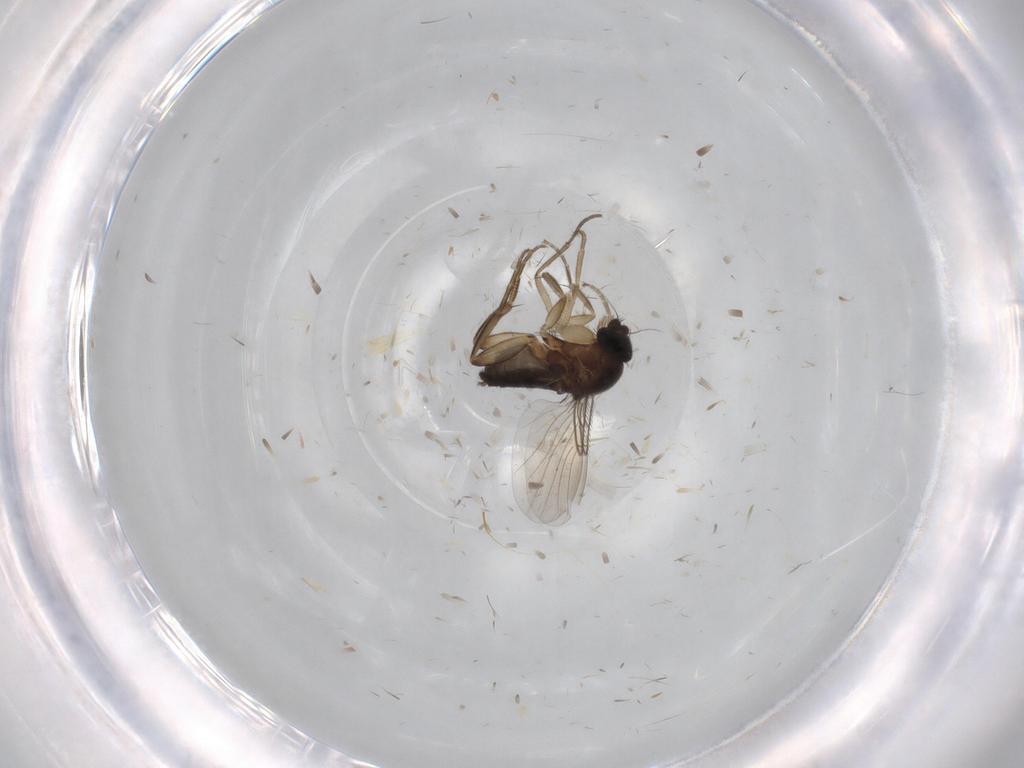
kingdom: Animalia
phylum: Arthropoda
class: Insecta
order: Diptera
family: Muscidae
